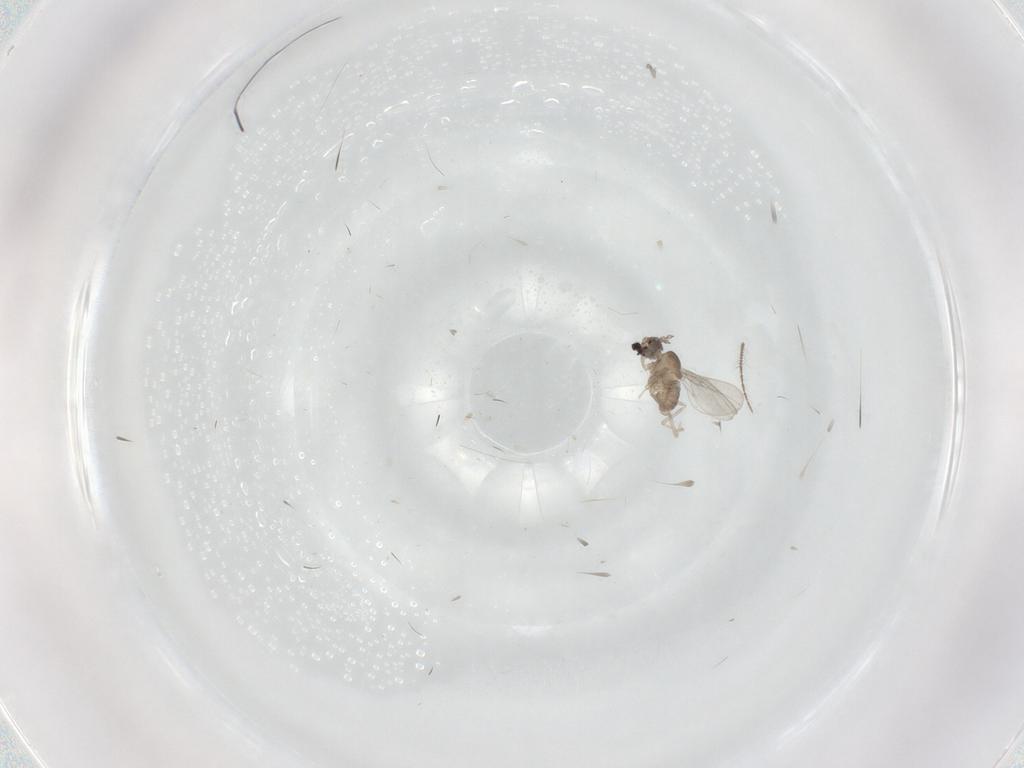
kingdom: Animalia
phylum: Arthropoda
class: Insecta
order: Diptera
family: Cecidomyiidae
